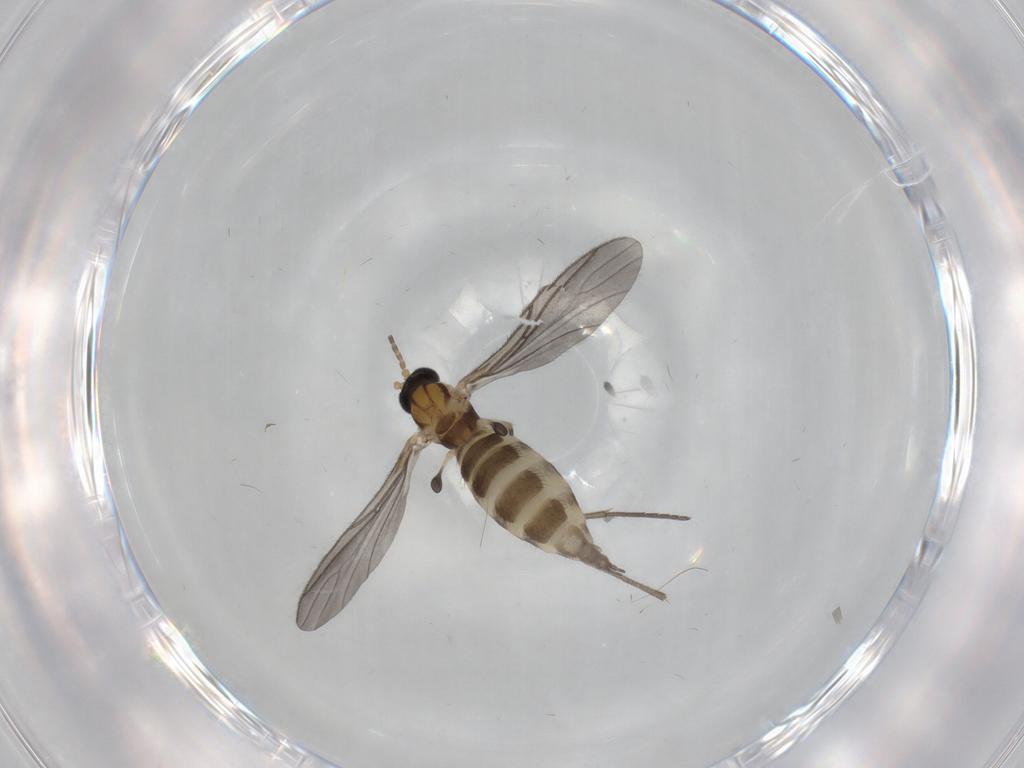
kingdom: Animalia
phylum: Arthropoda
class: Insecta
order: Diptera
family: Sciaridae
